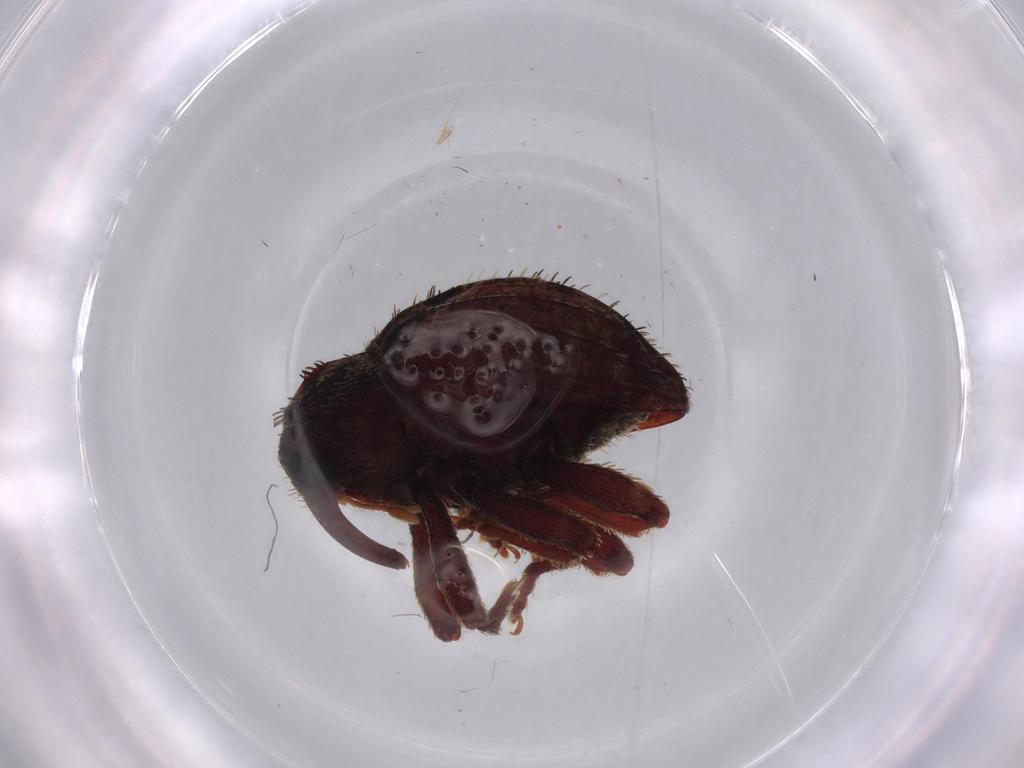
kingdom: Animalia
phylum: Arthropoda
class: Insecta
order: Coleoptera
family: Curculionidae
